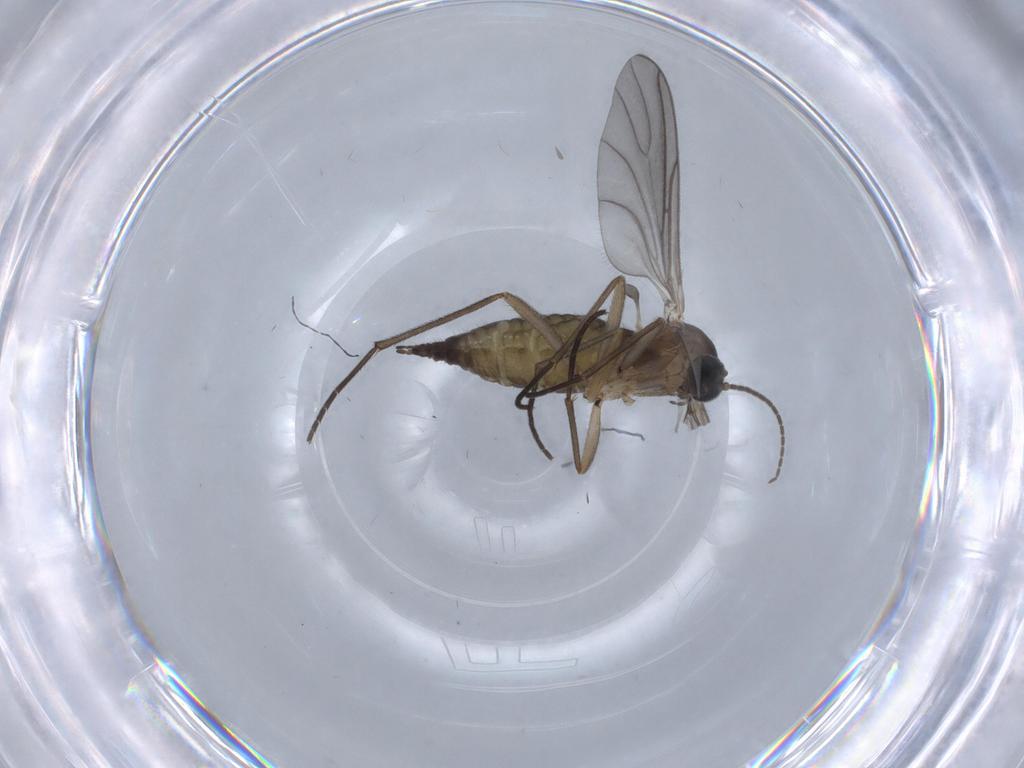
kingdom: Animalia
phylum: Arthropoda
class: Insecta
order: Diptera
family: Sciaridae
